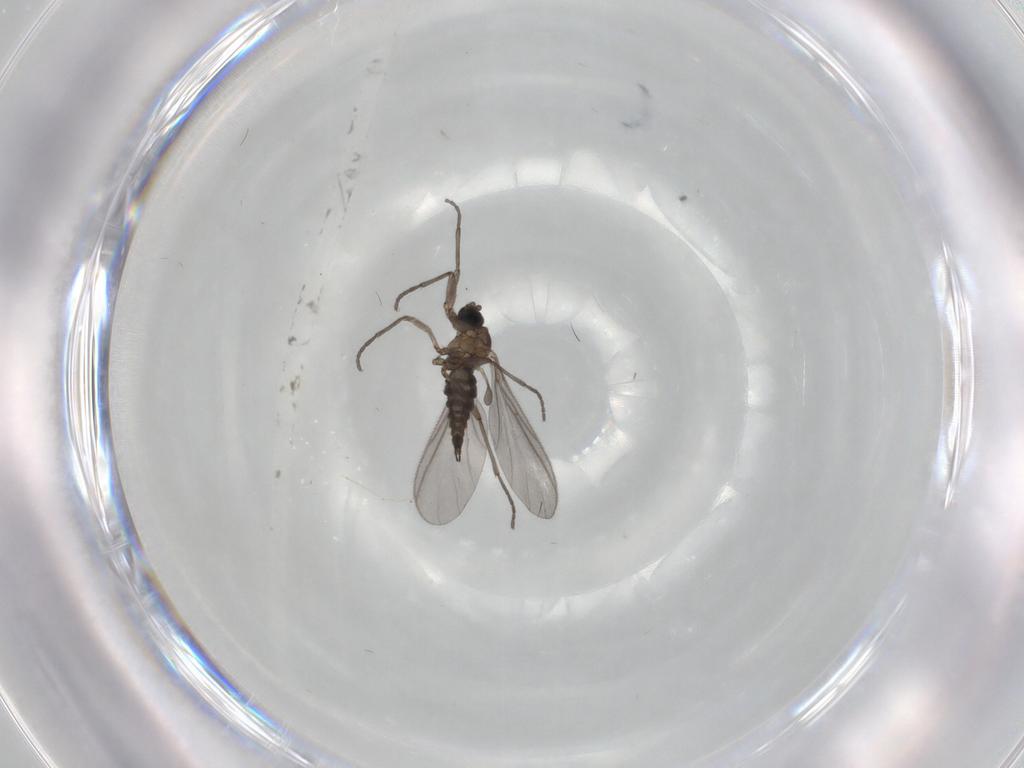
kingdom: Animalia
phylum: Arthropoda
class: Insecta
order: Diptera
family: Sciaridae
